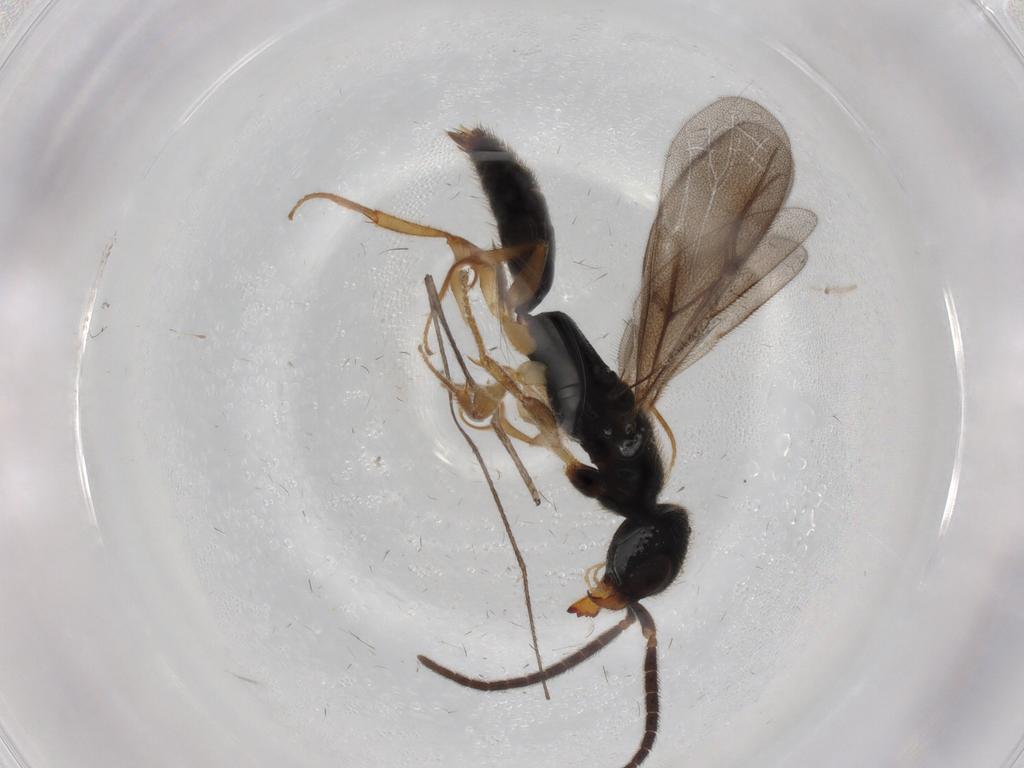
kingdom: Animalia
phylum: Arthropoda
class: Insecta
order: Hymenoptera
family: Bethylidae
